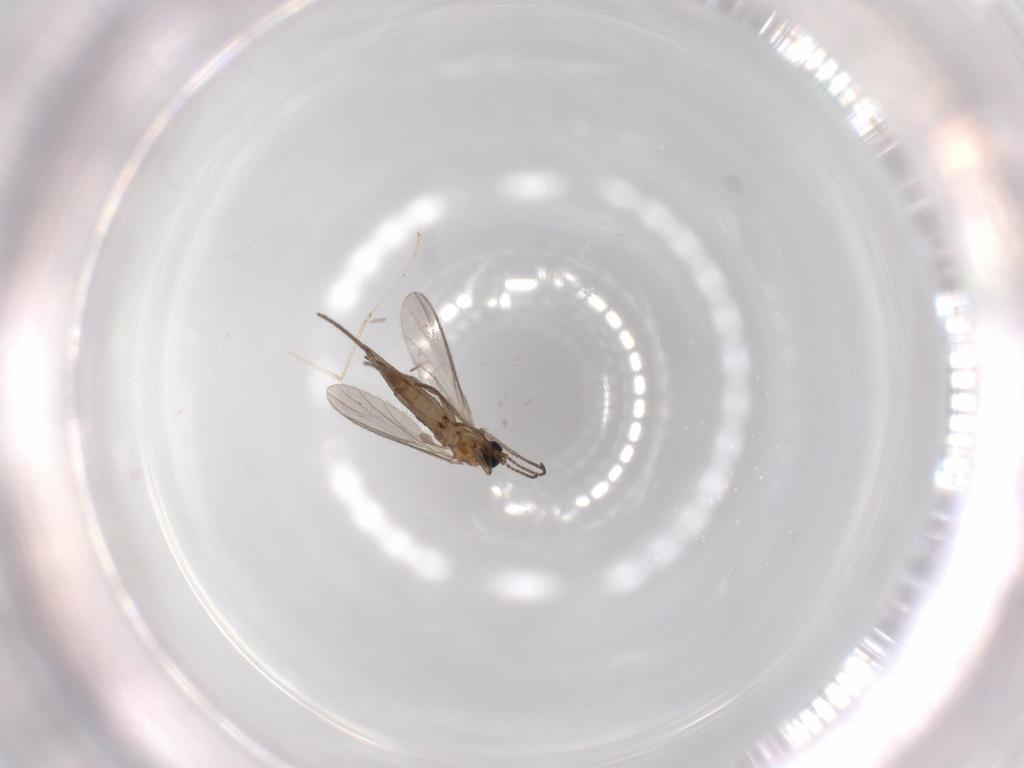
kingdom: Animalia
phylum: Arthropoda
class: Insecta
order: Diptera
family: Sciaridae
